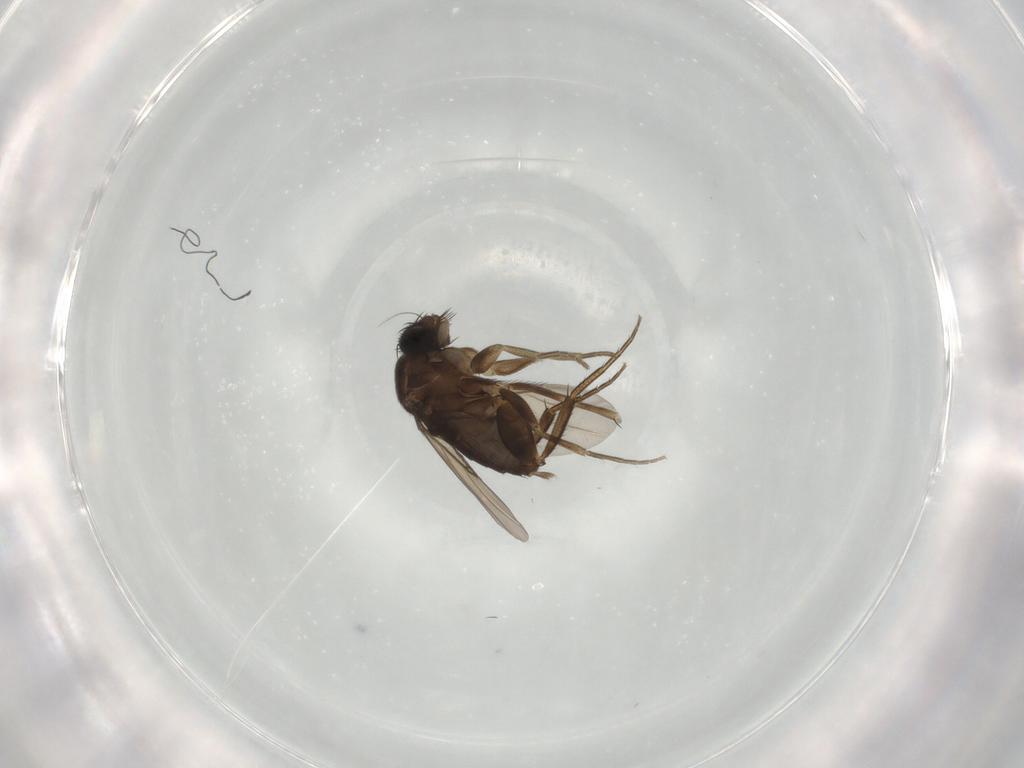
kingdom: Animalia
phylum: Arthropoda
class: Insecta
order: Diptera
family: Phoridae
